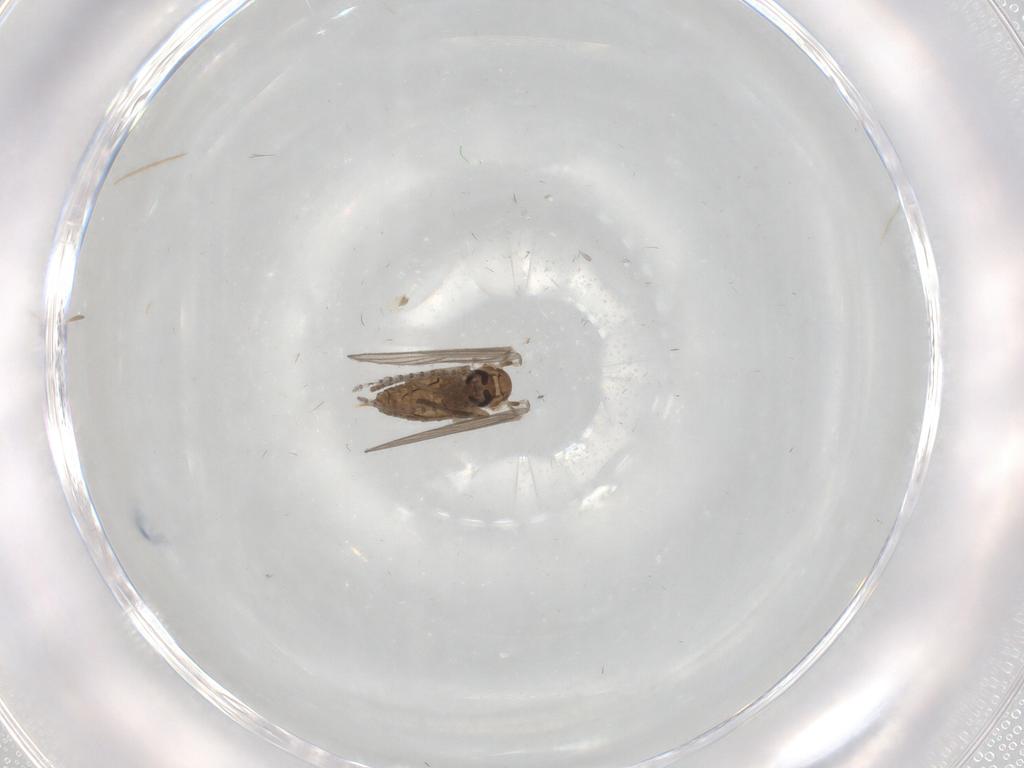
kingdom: Animalia
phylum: Arthropoda
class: Insecta
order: Diptera
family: Psychodidae
